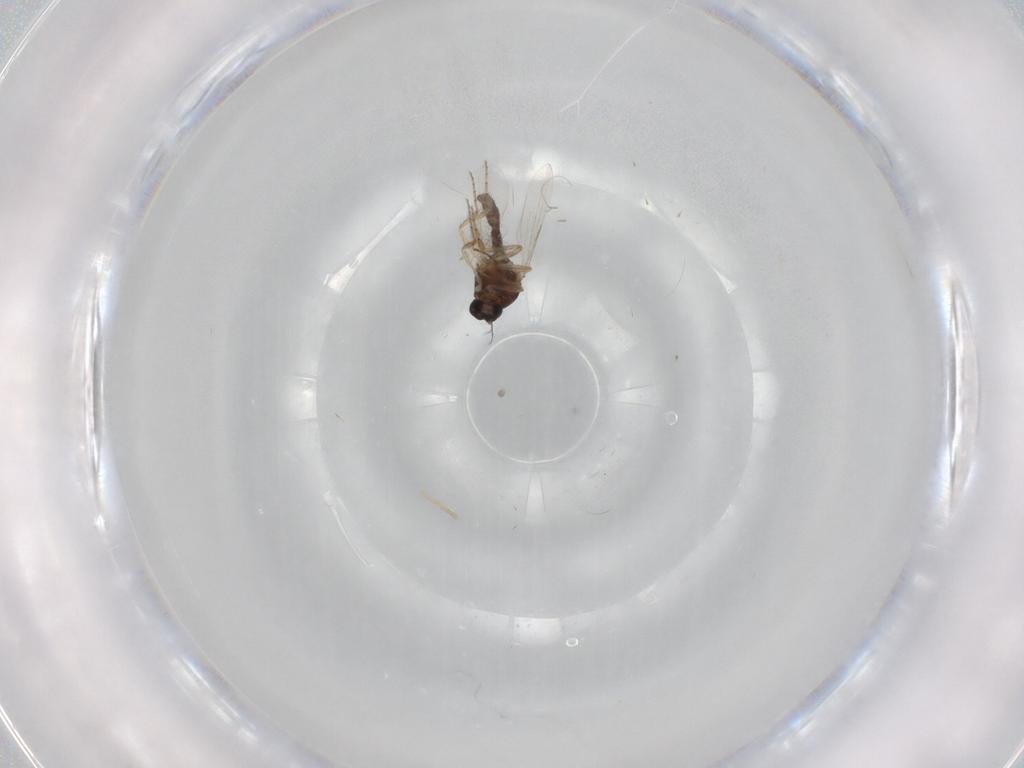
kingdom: Animalia
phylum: Arthropoda
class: Insecta
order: Diptera
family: Ceratopogonidae
